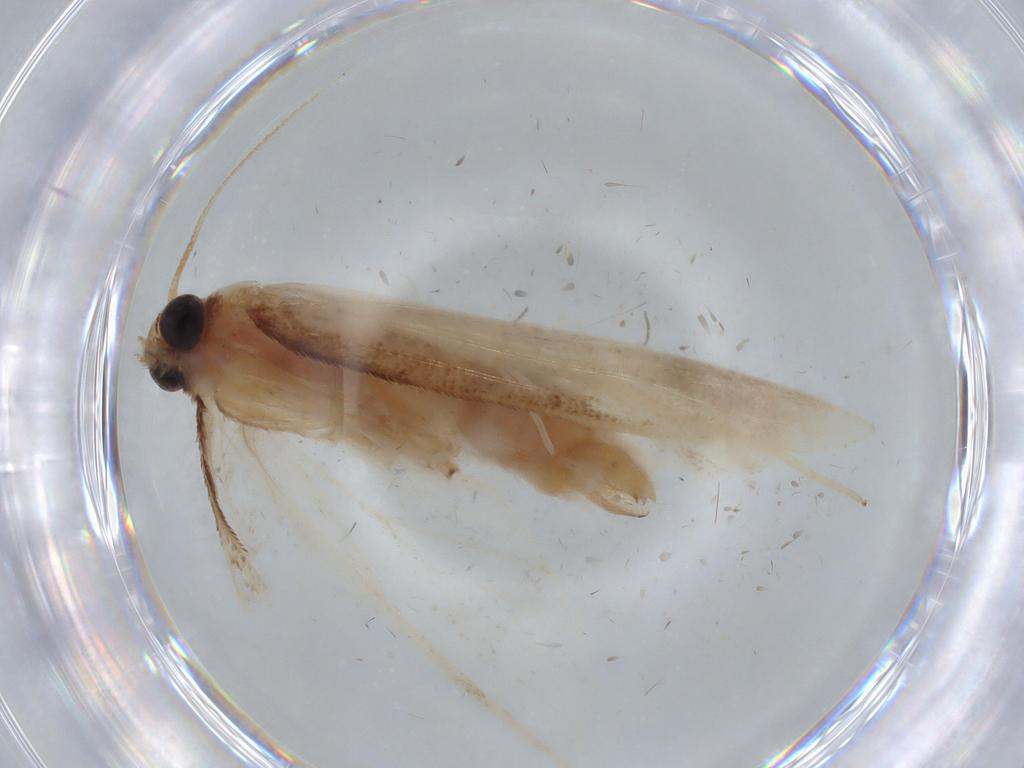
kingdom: Animalia
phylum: Arthropoda
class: Insecta
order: Lepidoptera
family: Crambidae
